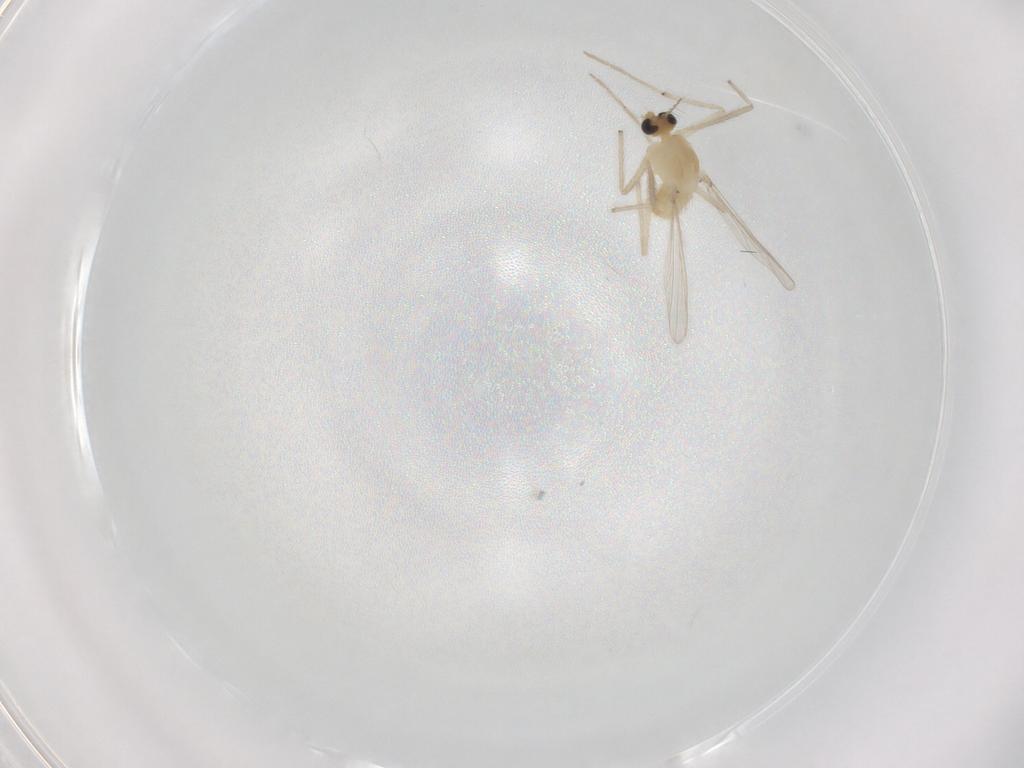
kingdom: Animalia
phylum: Arthropoda
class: Insecta
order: Diptera
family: Chironomidae
